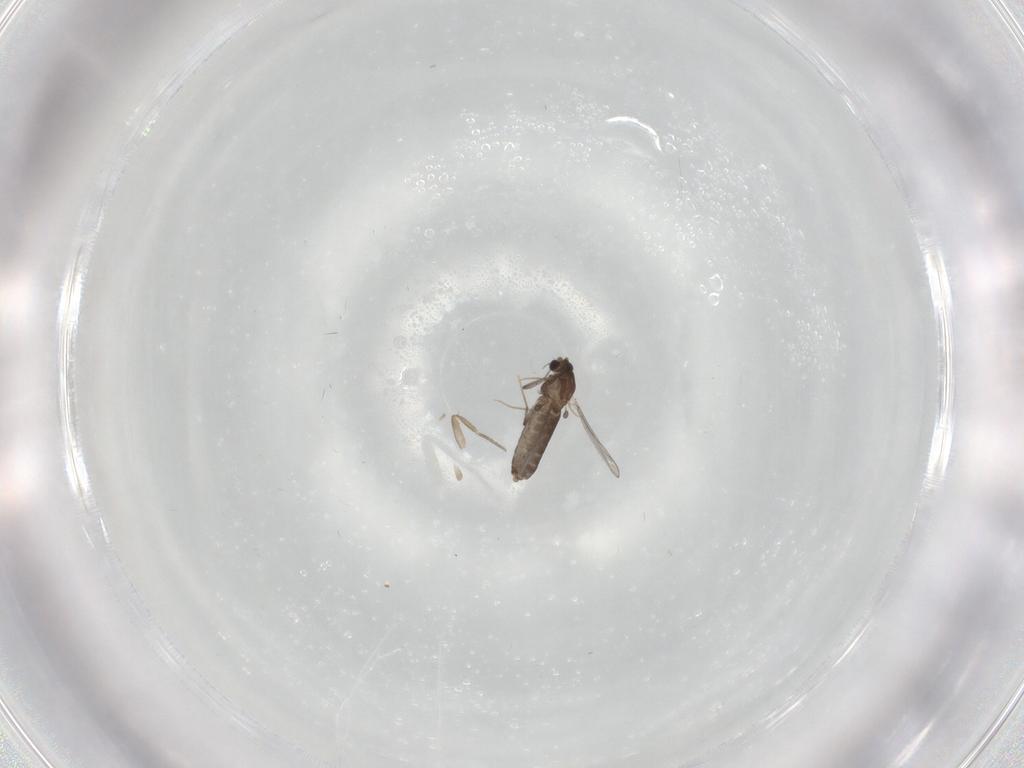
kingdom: Animalia
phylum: Arthropoda
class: Insecta
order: Diptera
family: Chironomidae
